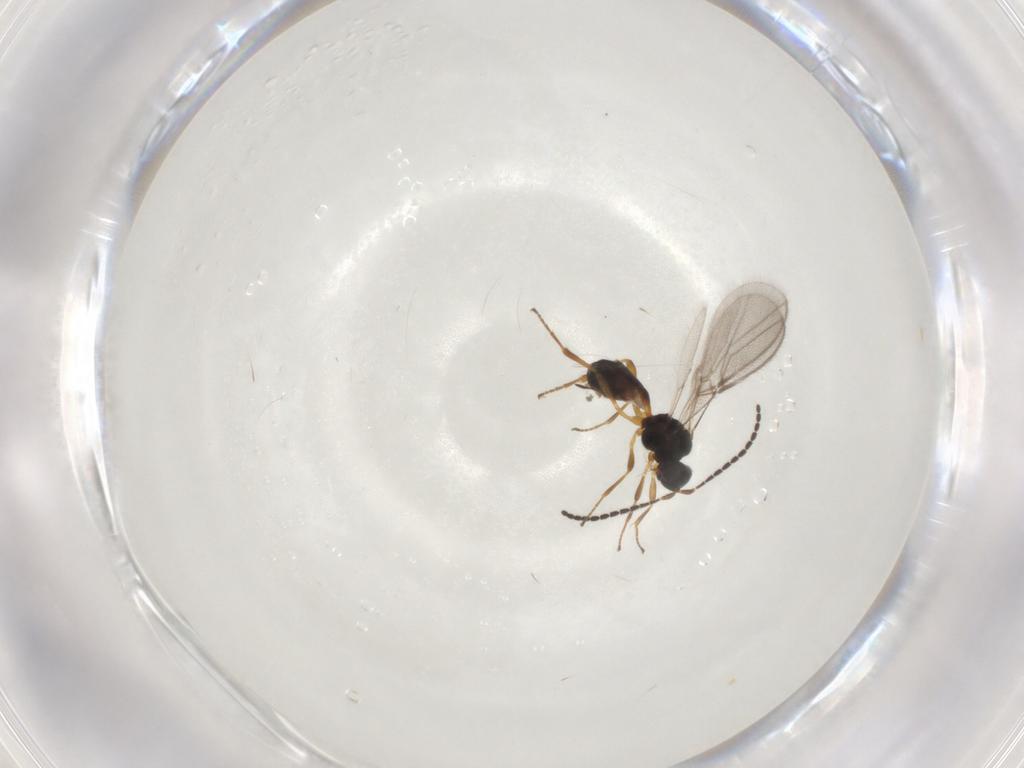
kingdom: Animalia
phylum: Arthropoda
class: Insecta
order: Hymenoptera
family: Braconidae
